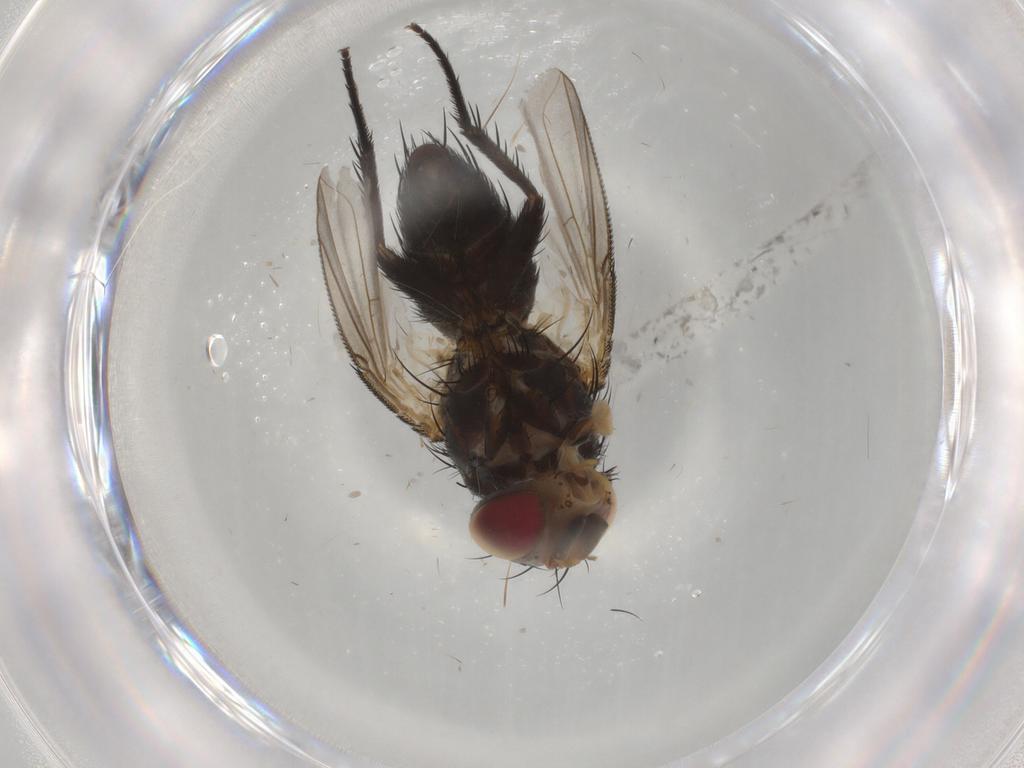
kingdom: Animalia
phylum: Arthropoda
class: Insecta
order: Diptera
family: Tachinidae
